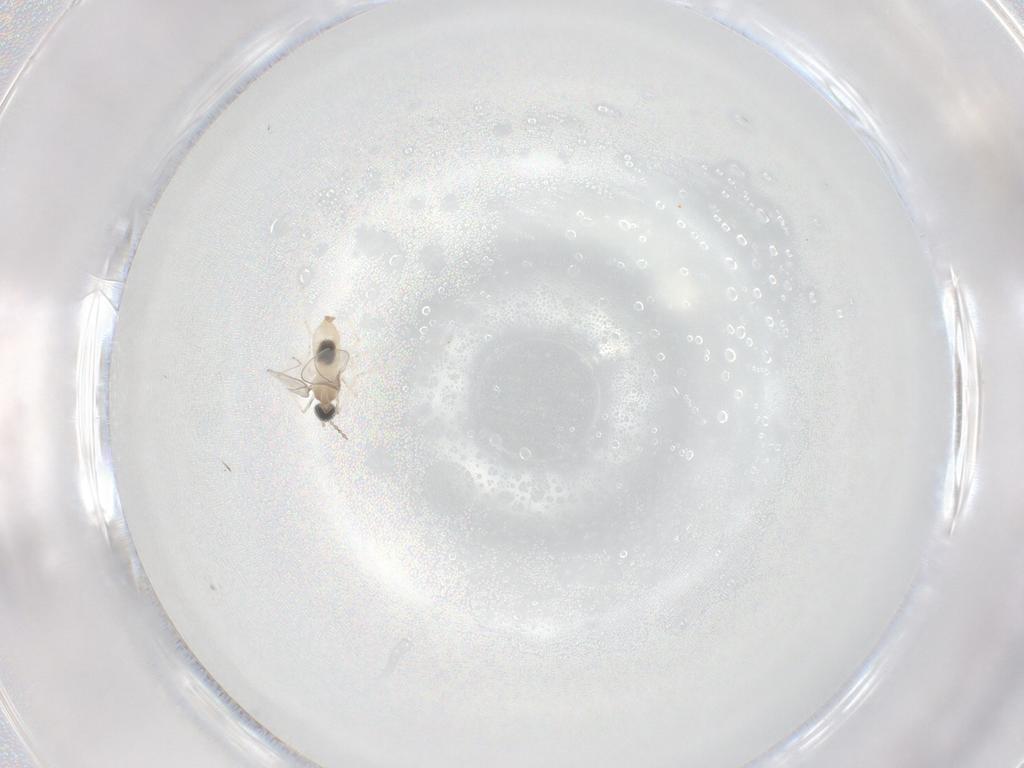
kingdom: Animalia
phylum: Arthropoda
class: Insecta
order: Diptera
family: Cecidomyiidae
